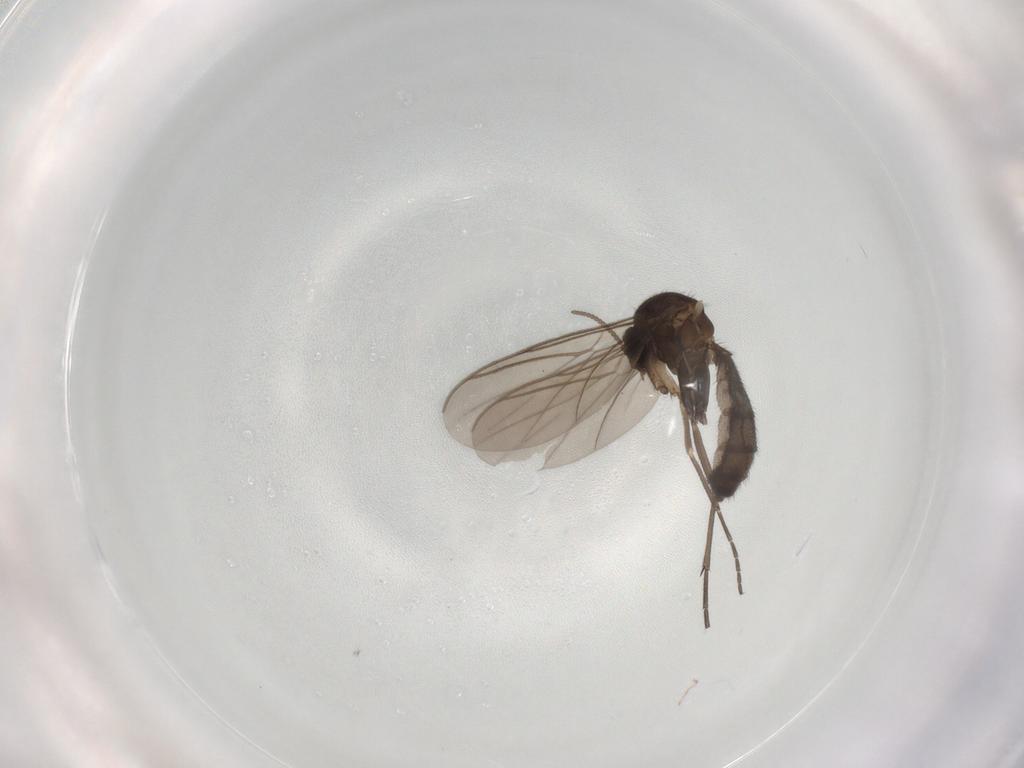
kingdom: Animalia
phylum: Arthropoda
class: Insecta
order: Diptera
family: Keroplatidae
